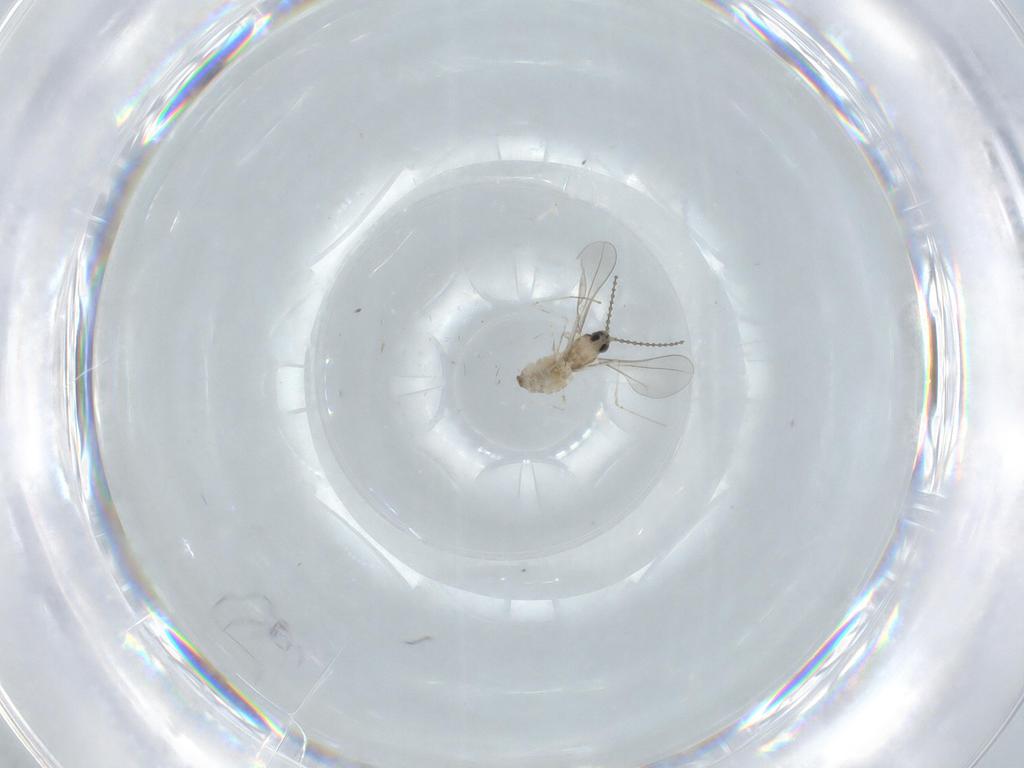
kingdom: Animalia
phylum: Arthropoda
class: Insecta
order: Diptera
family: Cecidomyiidae
